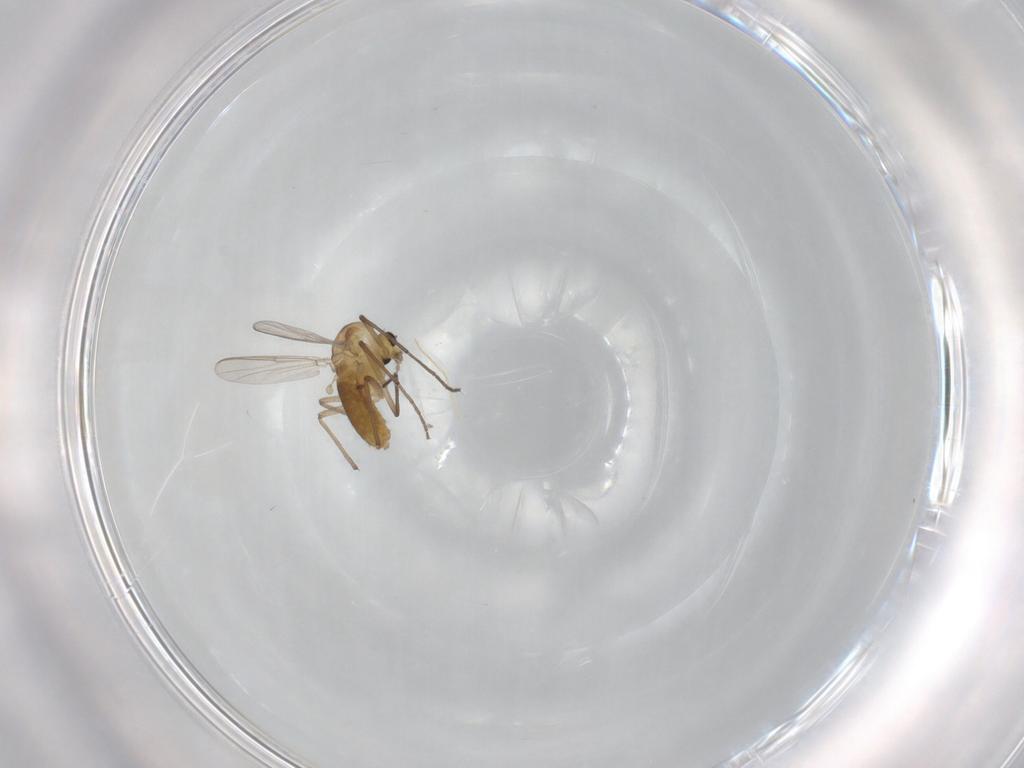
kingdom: Animalia
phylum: Arthropoda
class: Insecta
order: Diptera
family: Chironomidae
